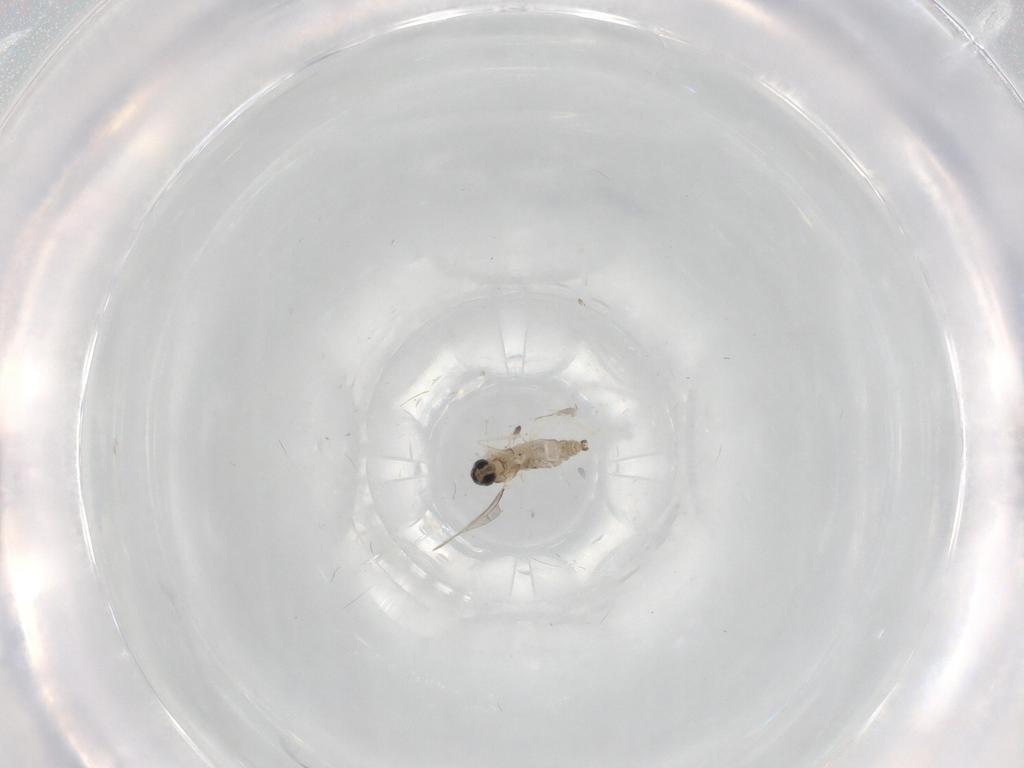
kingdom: Animalia
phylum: Arthropoda
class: Insecta
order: Diptera
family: Cecidomyiidae
